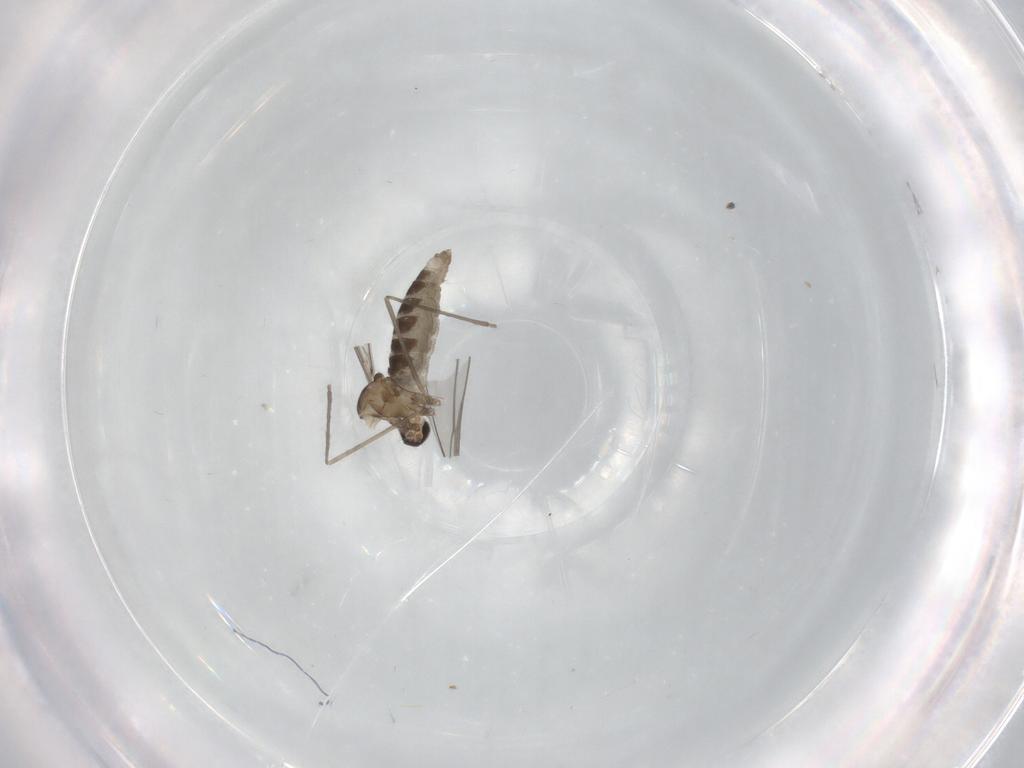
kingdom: Animalia
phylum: Arthropoda
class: Insecta
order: Diptera
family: Cecidomyiidae
